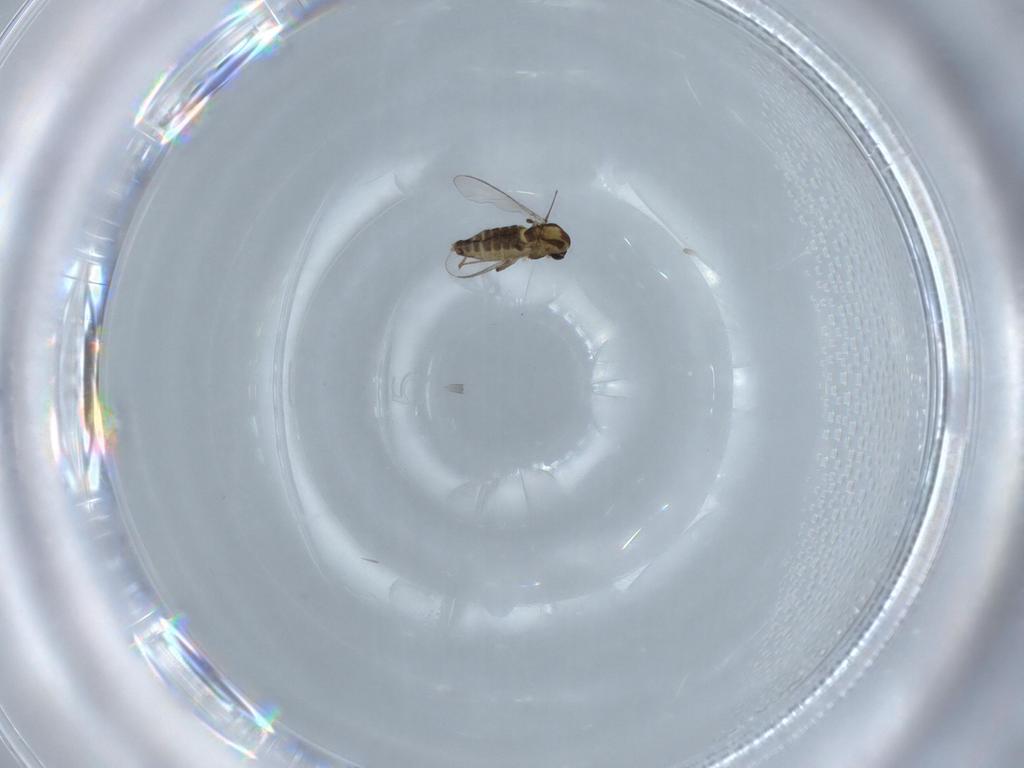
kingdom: Animalia
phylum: Arthropoda
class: Insecta
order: Diptera
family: Chironomidae
